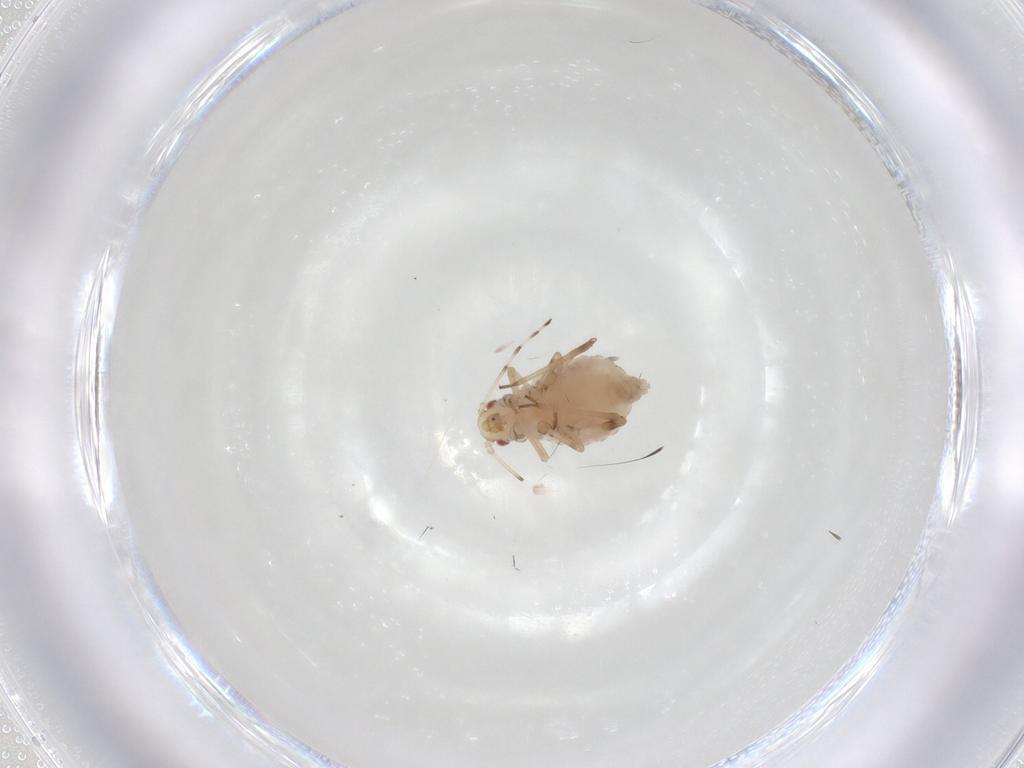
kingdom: Animalia
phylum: Arthropoda
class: Insecta
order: Hemiptera
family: Aphididae
